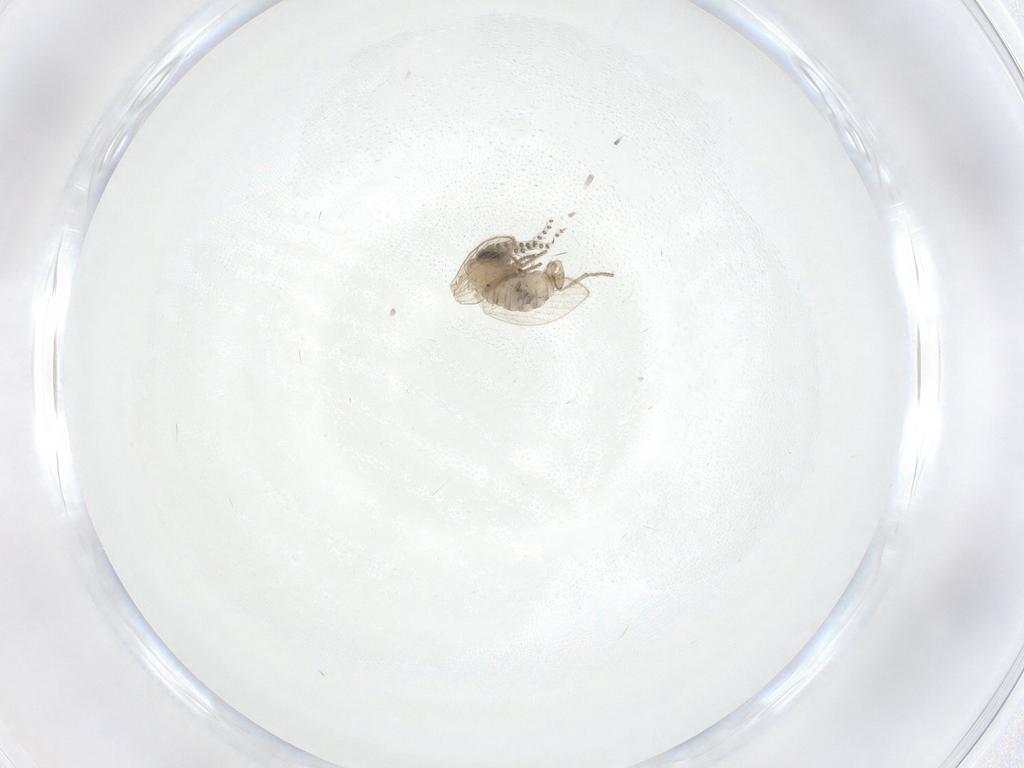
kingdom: Animalia
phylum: Arthropoda
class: Insecta
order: Diptera
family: Psychodidae
